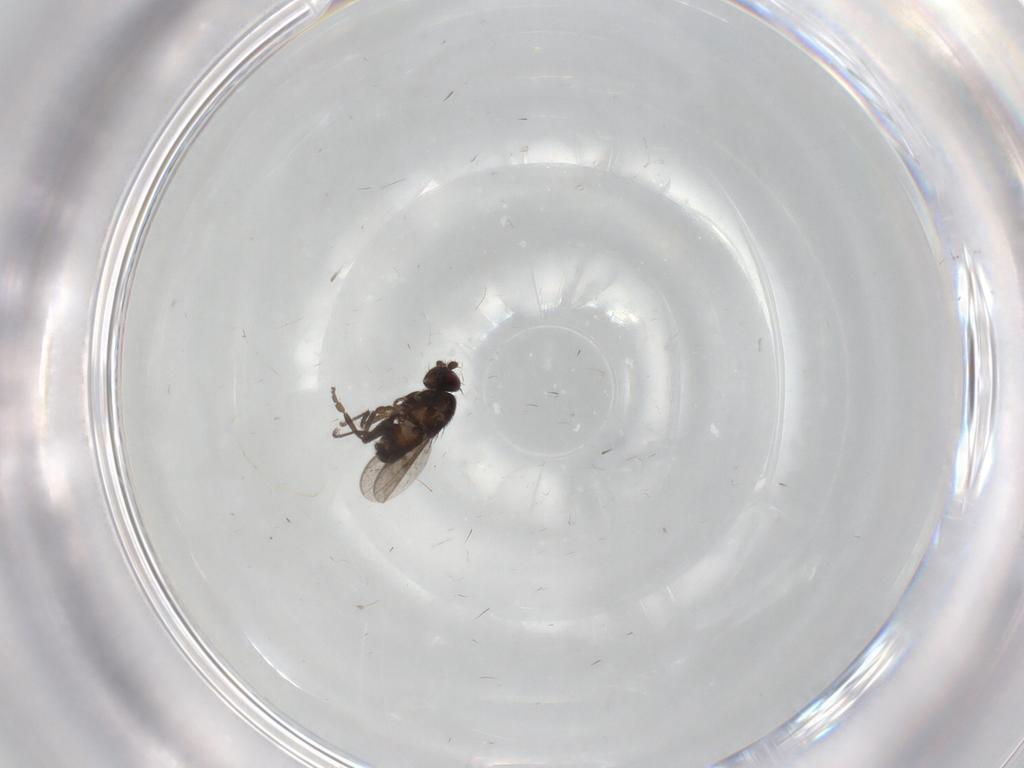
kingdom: Animalia
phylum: Arthropoda
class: Insecta
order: Diptera
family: Sphaeroceridae
